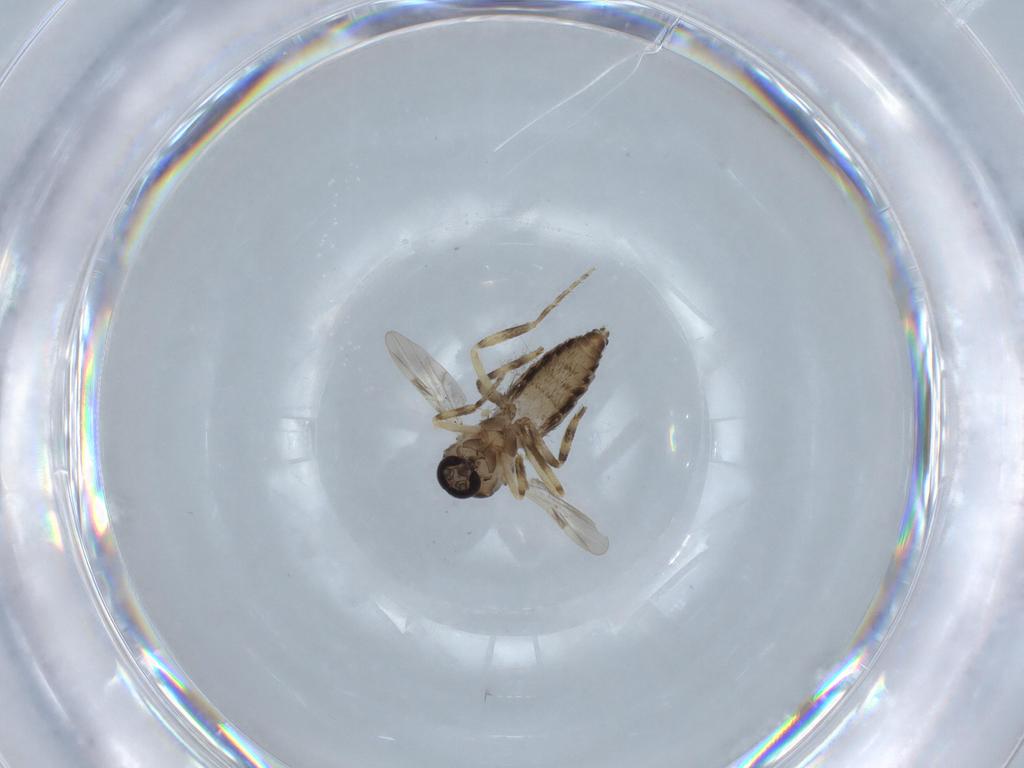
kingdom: Animalia
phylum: Arthropoda
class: Insecta
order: Diptera
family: Ceratopogonidae
